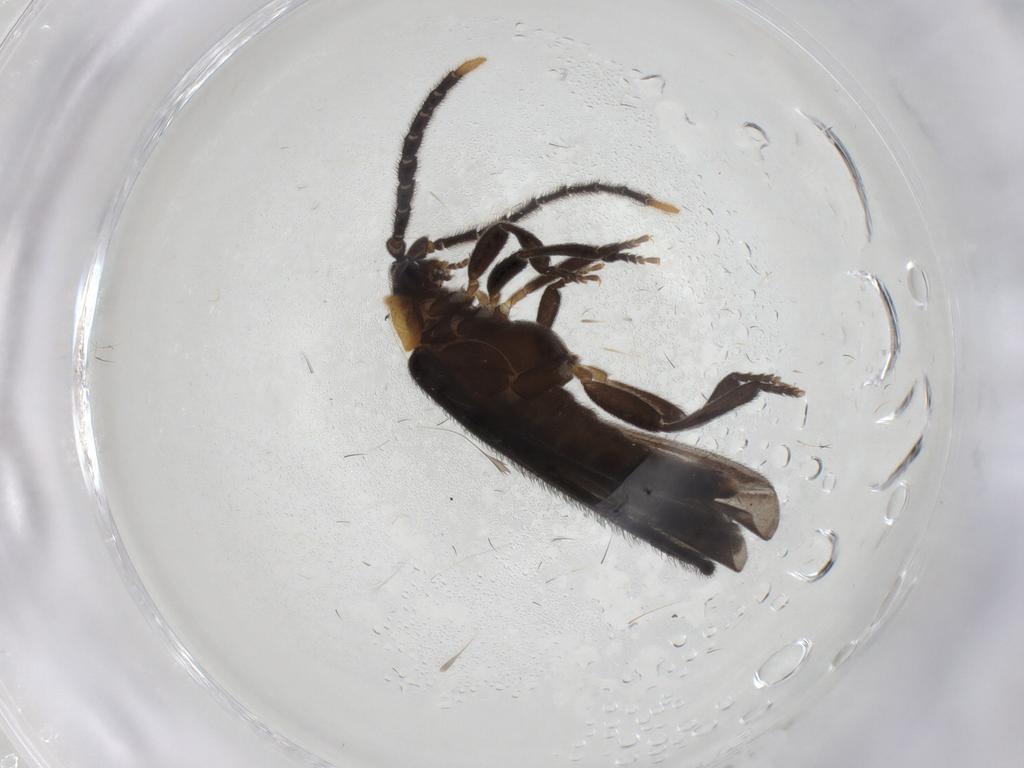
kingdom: Animalia
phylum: Arthropoda
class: Insecta
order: Coleoptera
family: Lycidae
